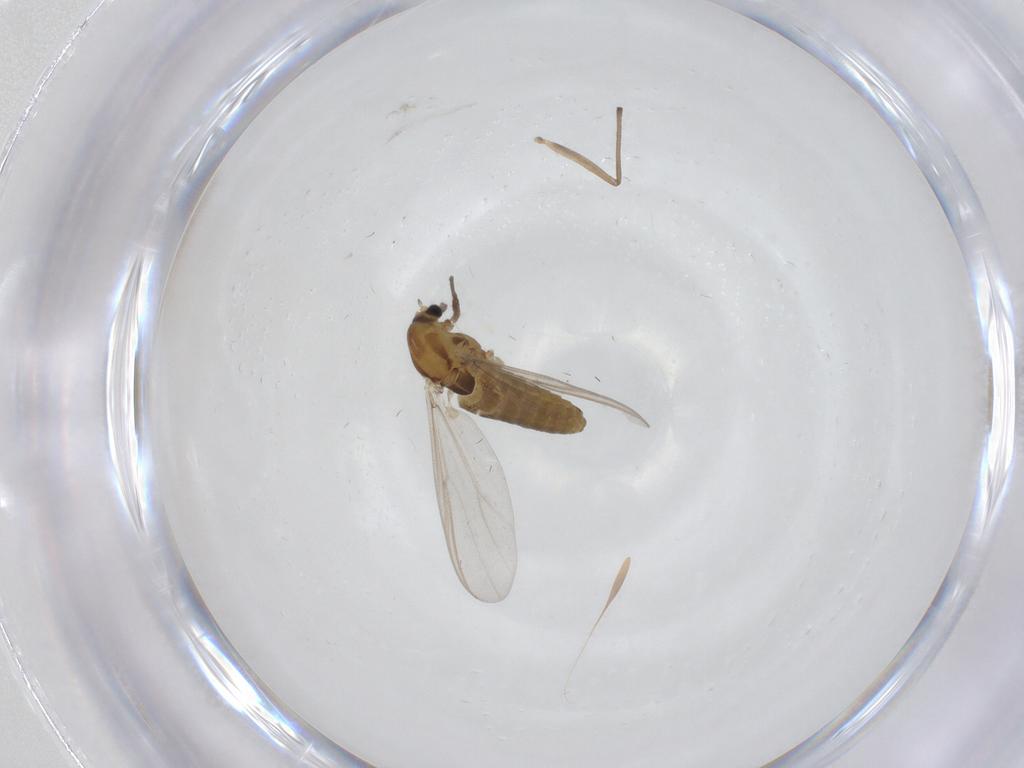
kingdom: Animalia
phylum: Arthropoda
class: Insecta
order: Diptera
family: Chironomidae
